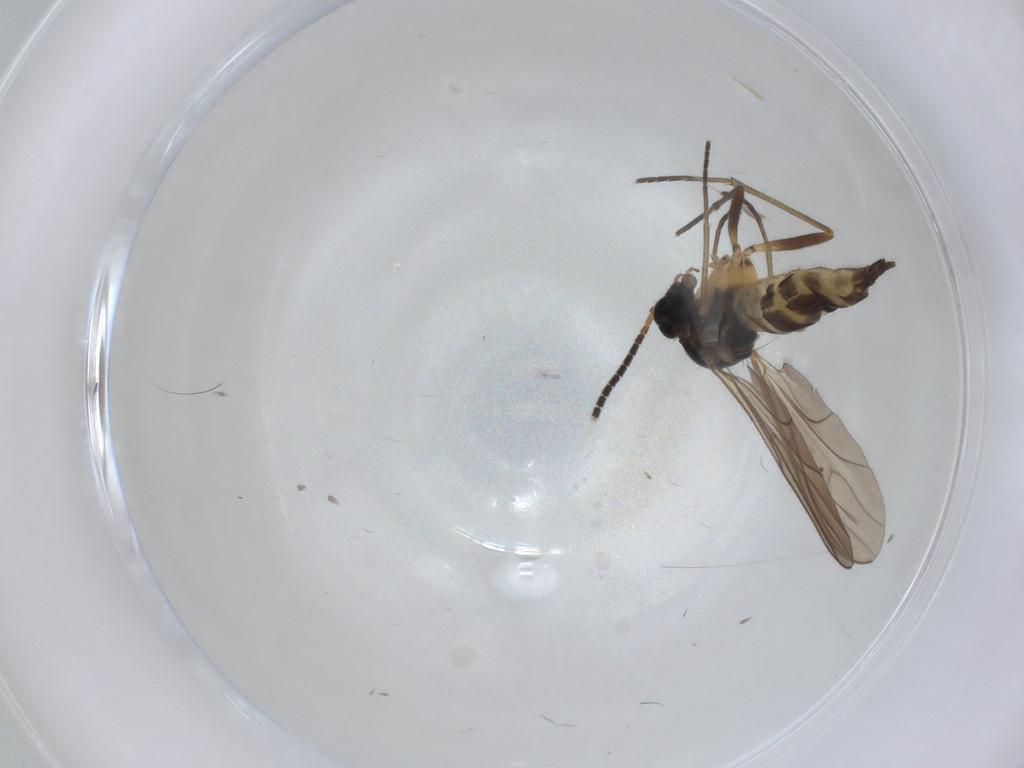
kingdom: Animalia
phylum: Arthropoda
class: Insecta
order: Diptera
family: Sciaridae
